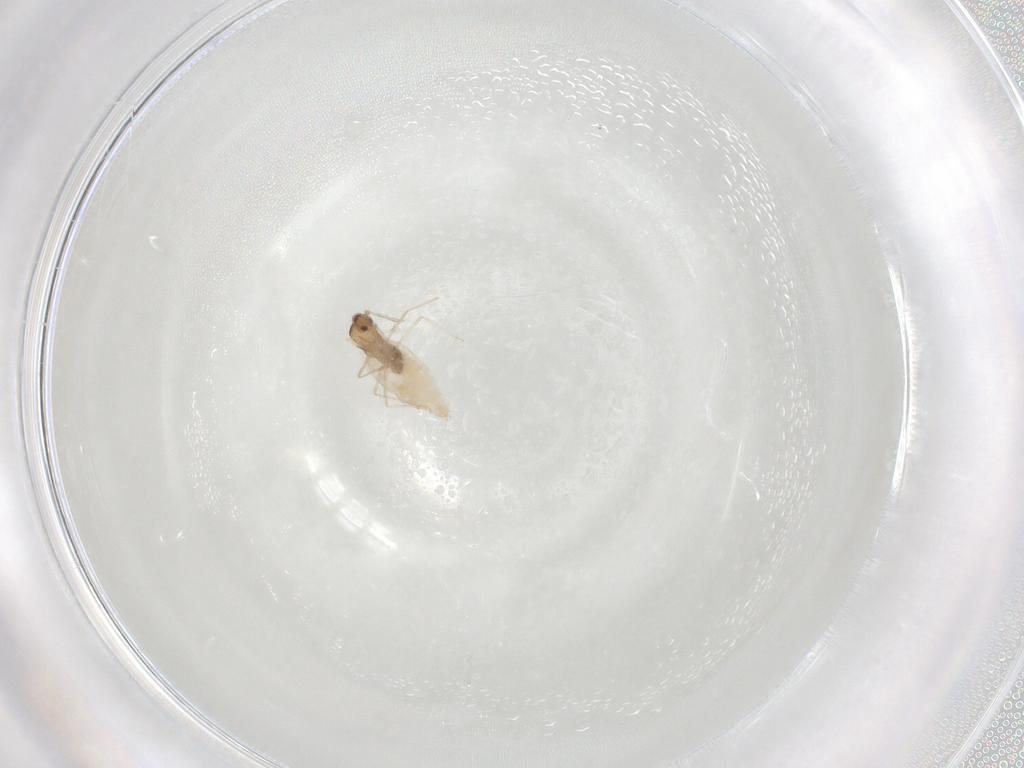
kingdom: Animalia
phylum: Arthropoda
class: Insecta
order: Diptera
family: Cecidomyiidae
